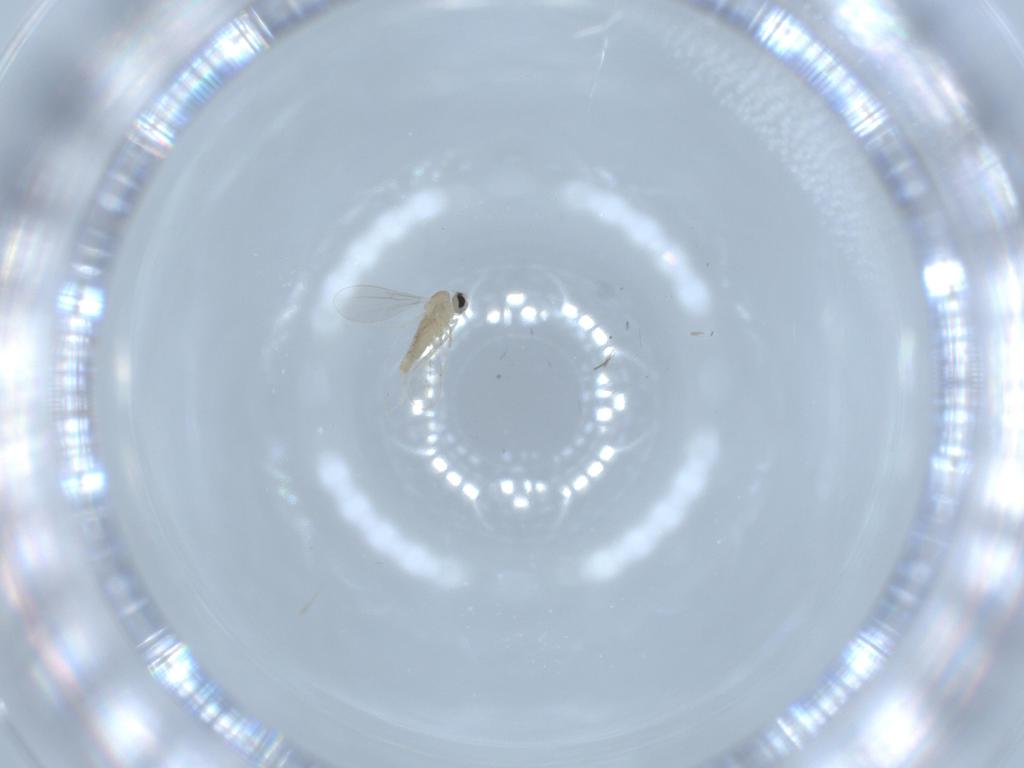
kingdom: Animalia
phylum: Arthropoda
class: Insecta
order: Diptera
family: Cecidomyiidae
